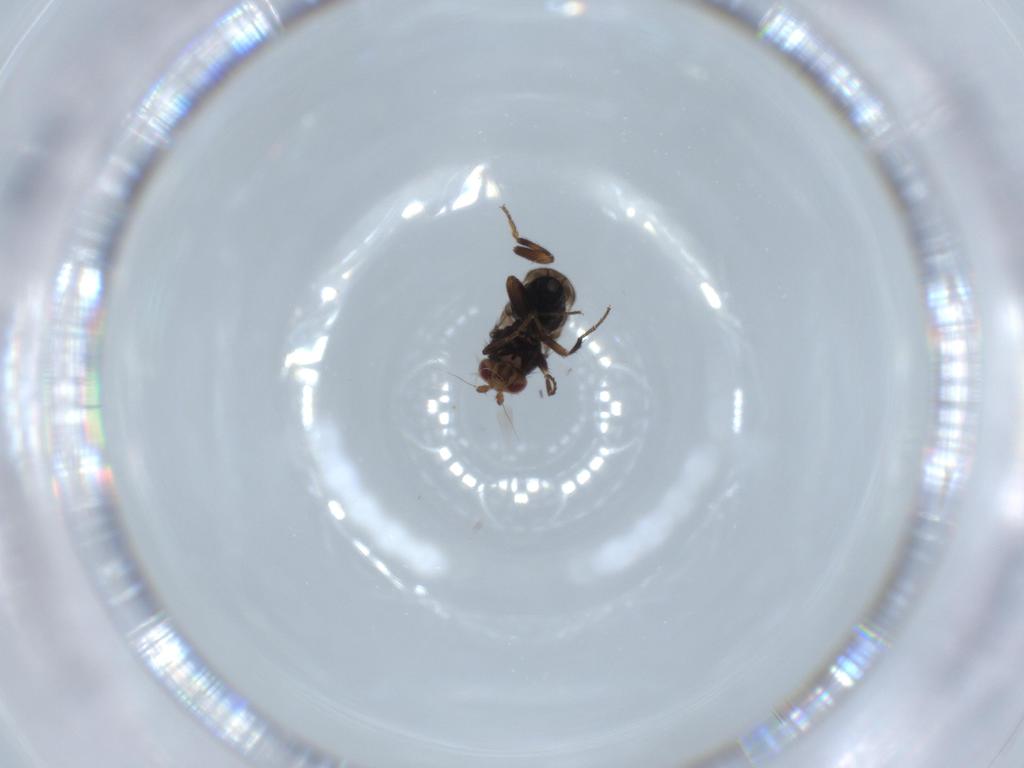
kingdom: Animalia
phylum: Arthropoda
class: Insecta
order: Diptera
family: Sphaeroceridae
